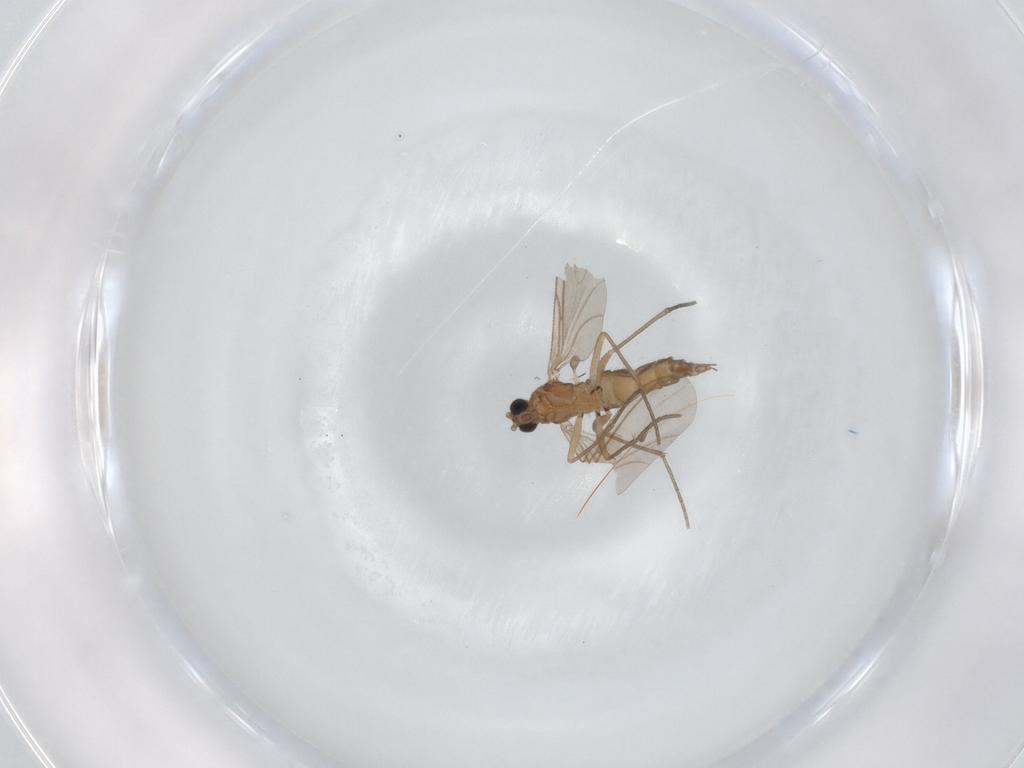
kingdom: Animalia
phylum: Arthropoda
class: Insecta
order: Diptera
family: Sciaridae
